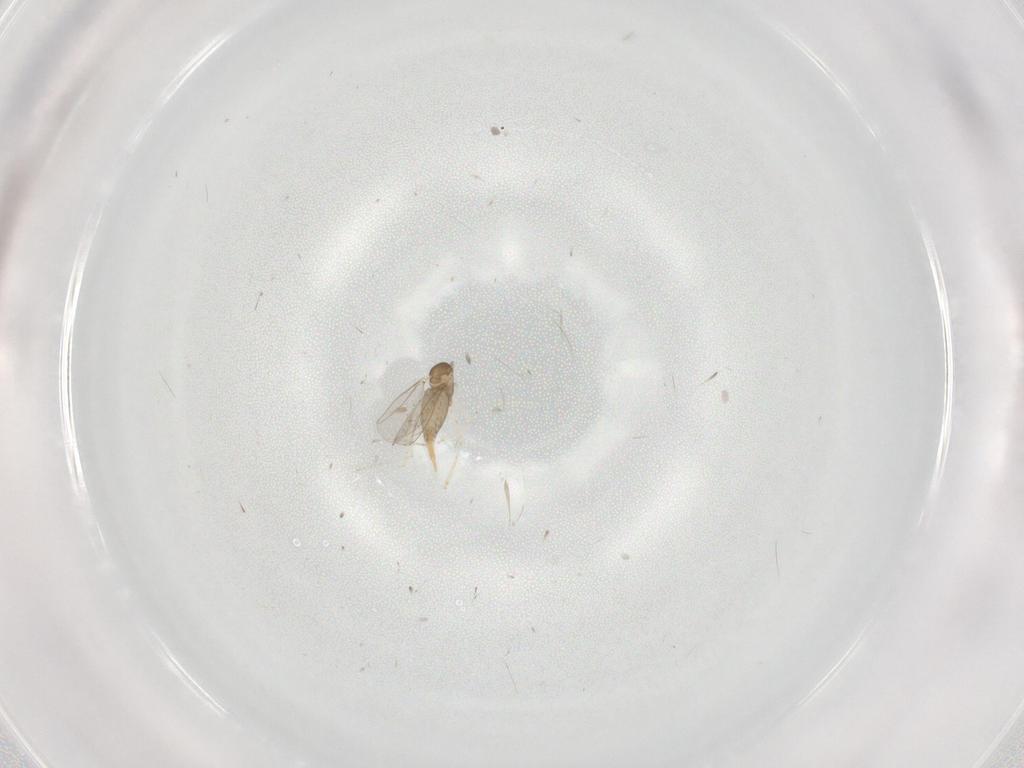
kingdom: Animalia
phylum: Arthropoda
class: Insecta
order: Diptera
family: Cecidomyiidae
